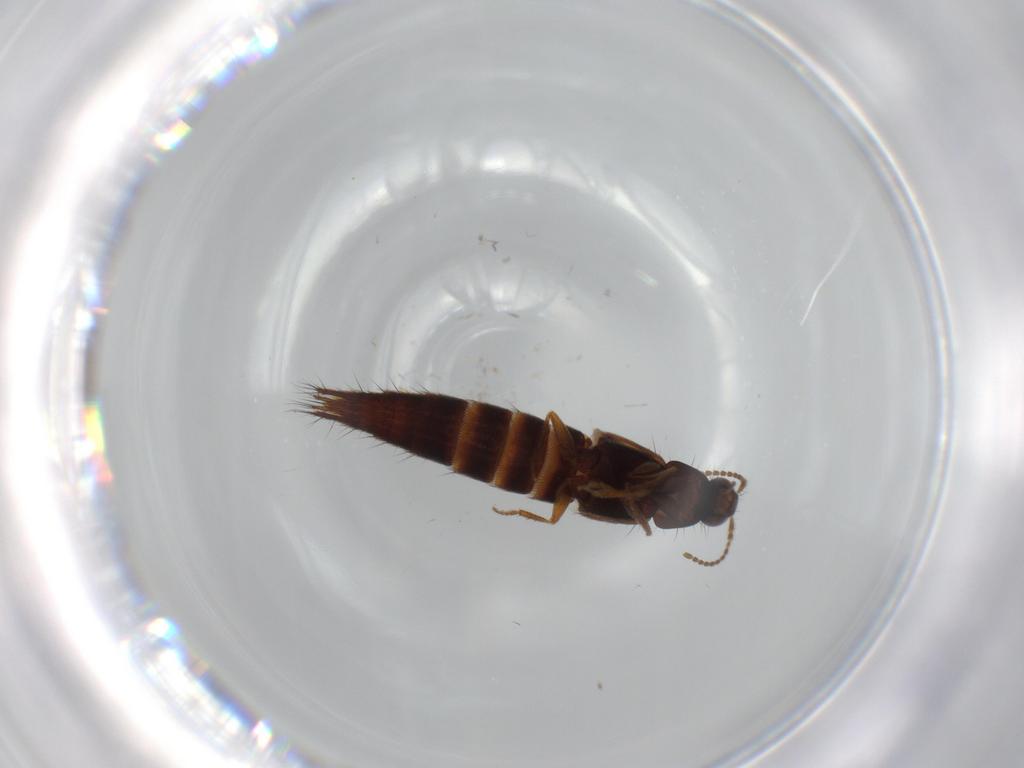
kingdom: Animalia
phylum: Arthropoda
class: Insecta
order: Coleoptera
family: Staphylinidae
